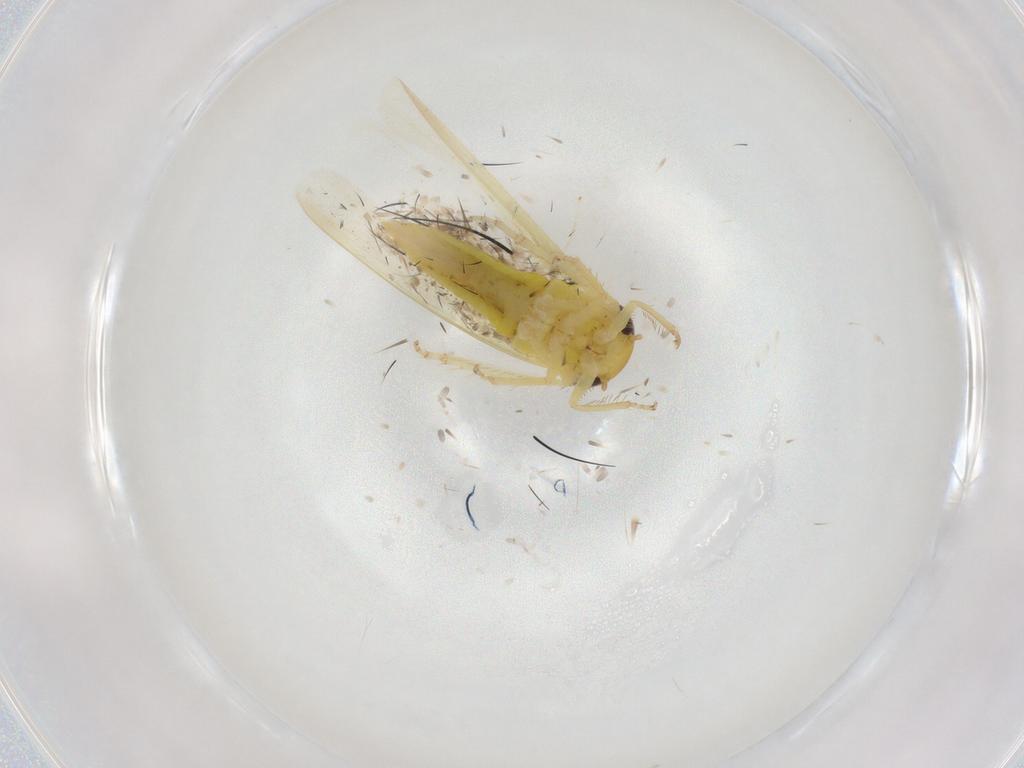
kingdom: Animalia
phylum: Arthropoda
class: Insecta
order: Hemiptera
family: Cicadellidae
